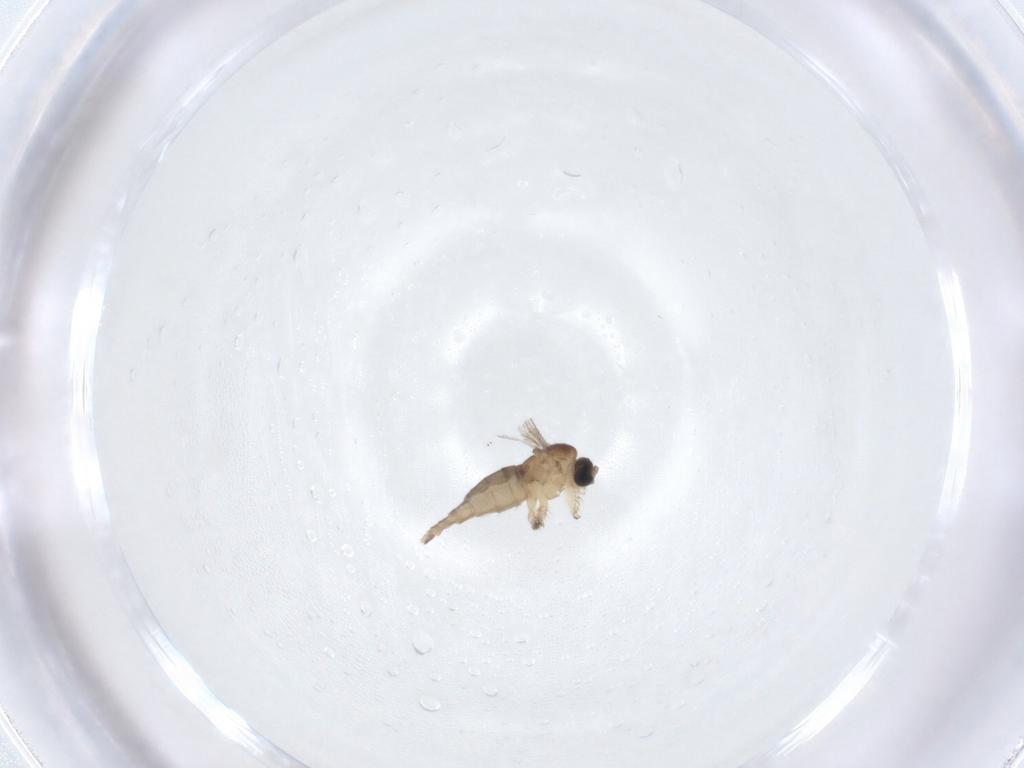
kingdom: Animalia
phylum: Arthropoda
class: Insecta
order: Diptera
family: Sciaridae
